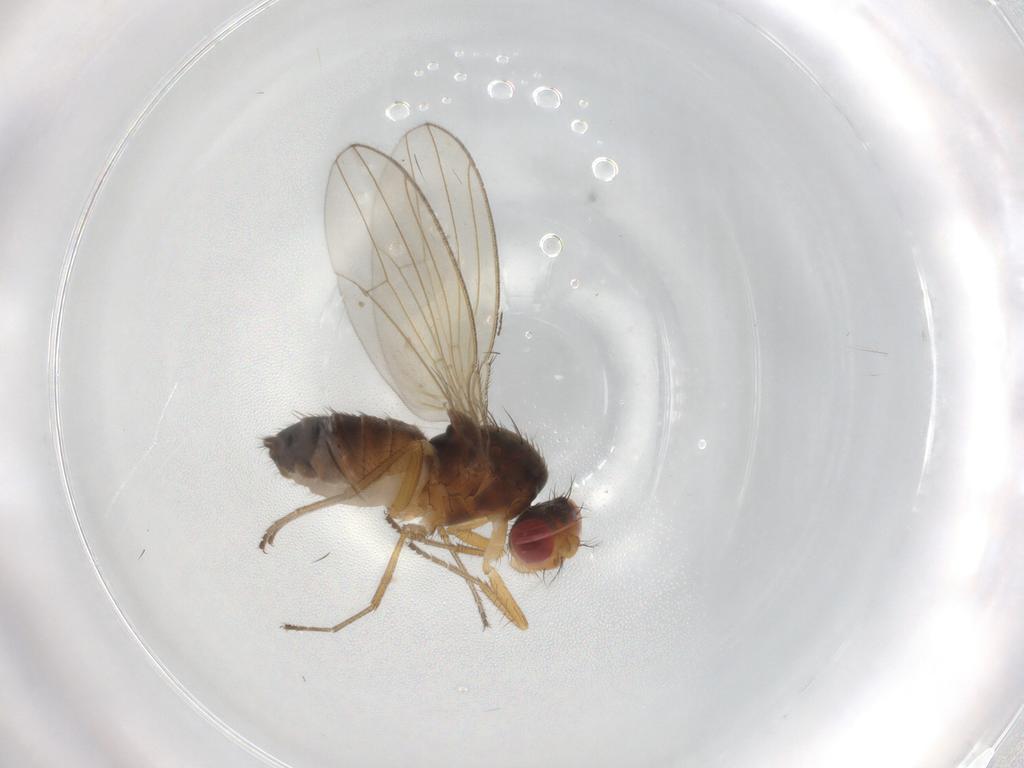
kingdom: Animalia
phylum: Arthropoda
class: Insecta
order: Diptera
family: Drosophilidae
